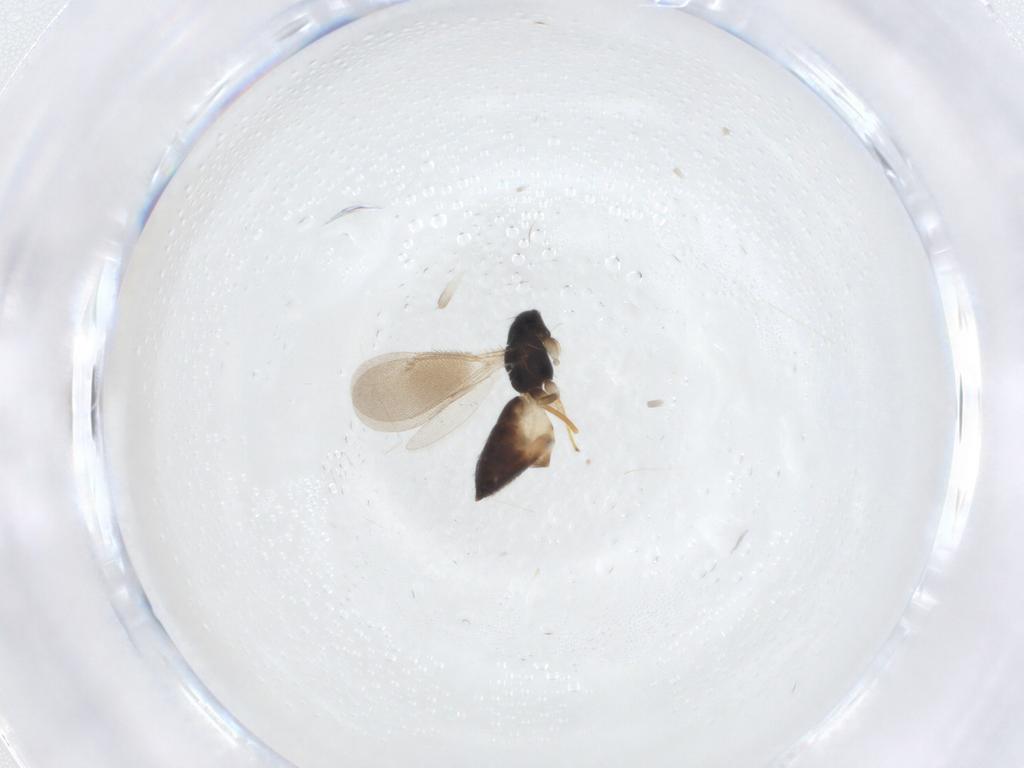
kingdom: Animalia
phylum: Arthropoda
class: Insecta
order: Hymenoptera
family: Eulophidae
